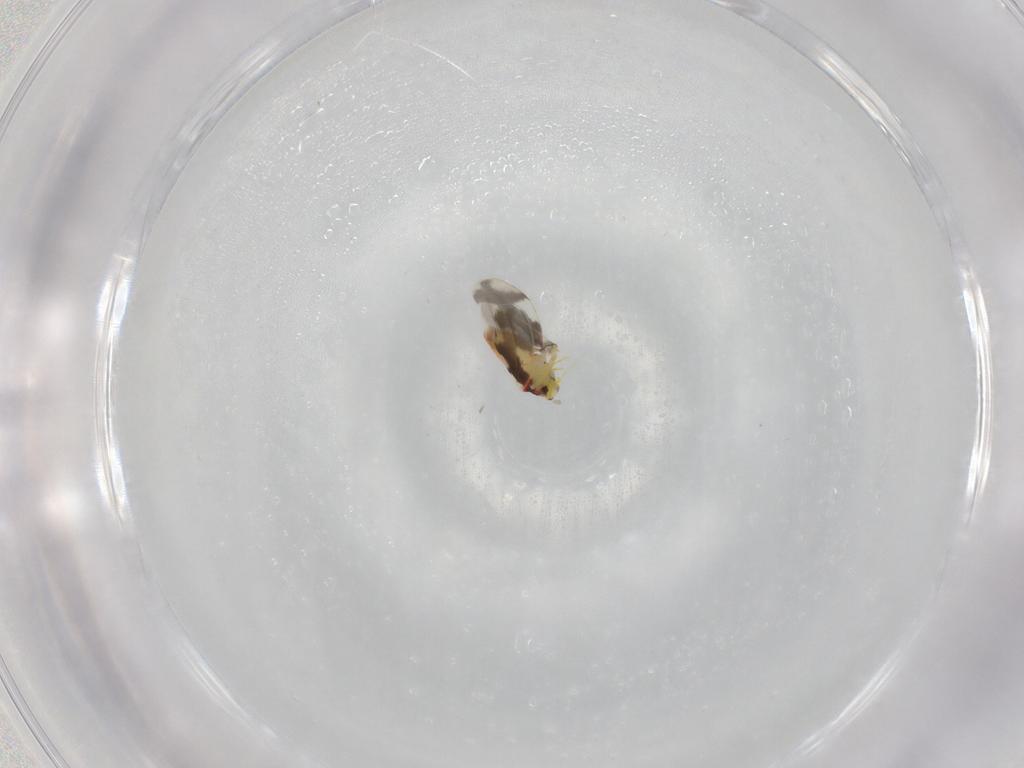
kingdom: Animalia
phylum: Arthropoda
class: Insecta
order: Hemiptera
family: Aleyrodidae
